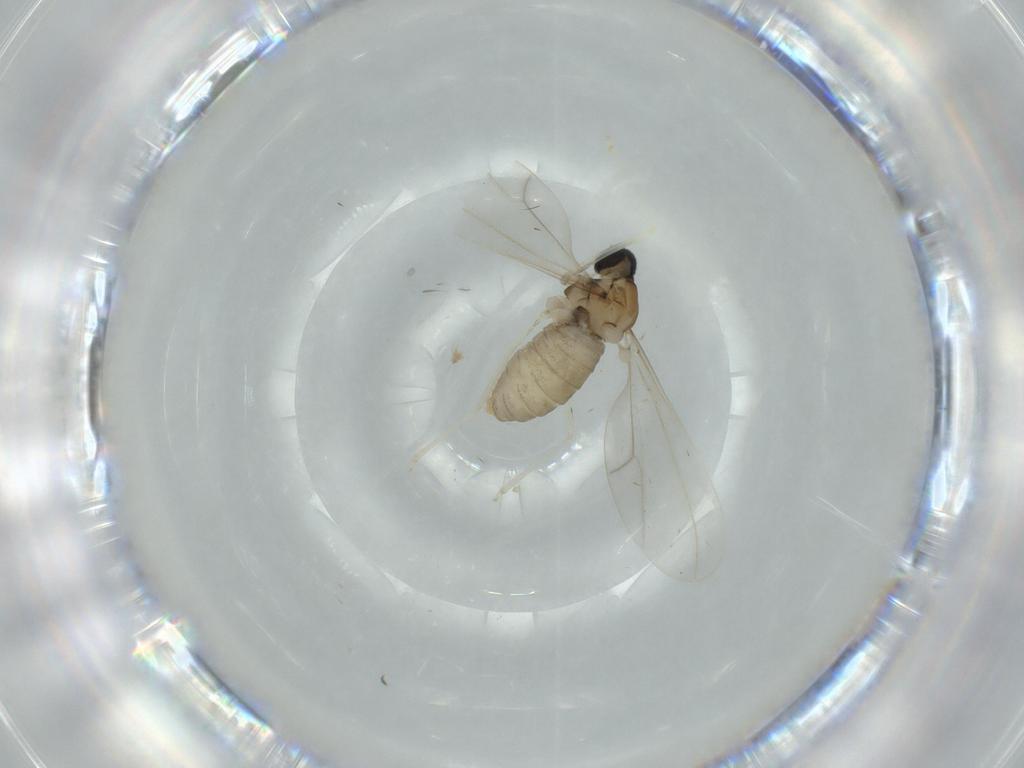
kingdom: Animalia
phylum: Arthropoda
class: Insecta
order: Diptera
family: Cecidomyiidae
